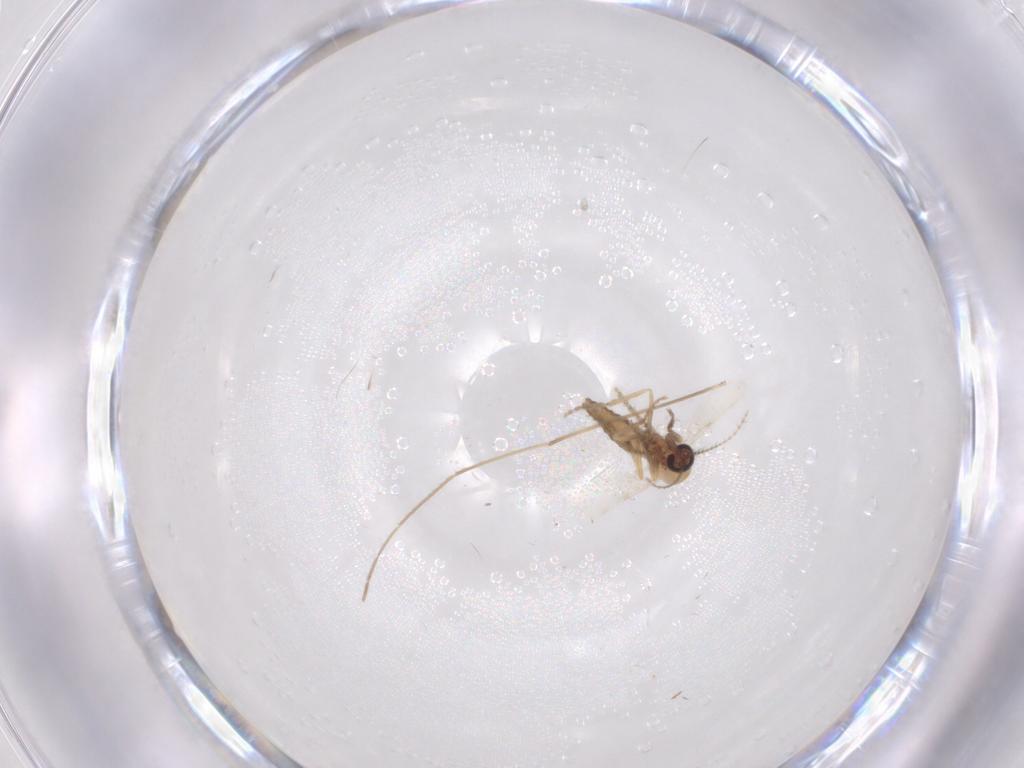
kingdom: Animalia
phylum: Arthropoda
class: Insecta
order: Diptera
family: Ceratopogonidae
